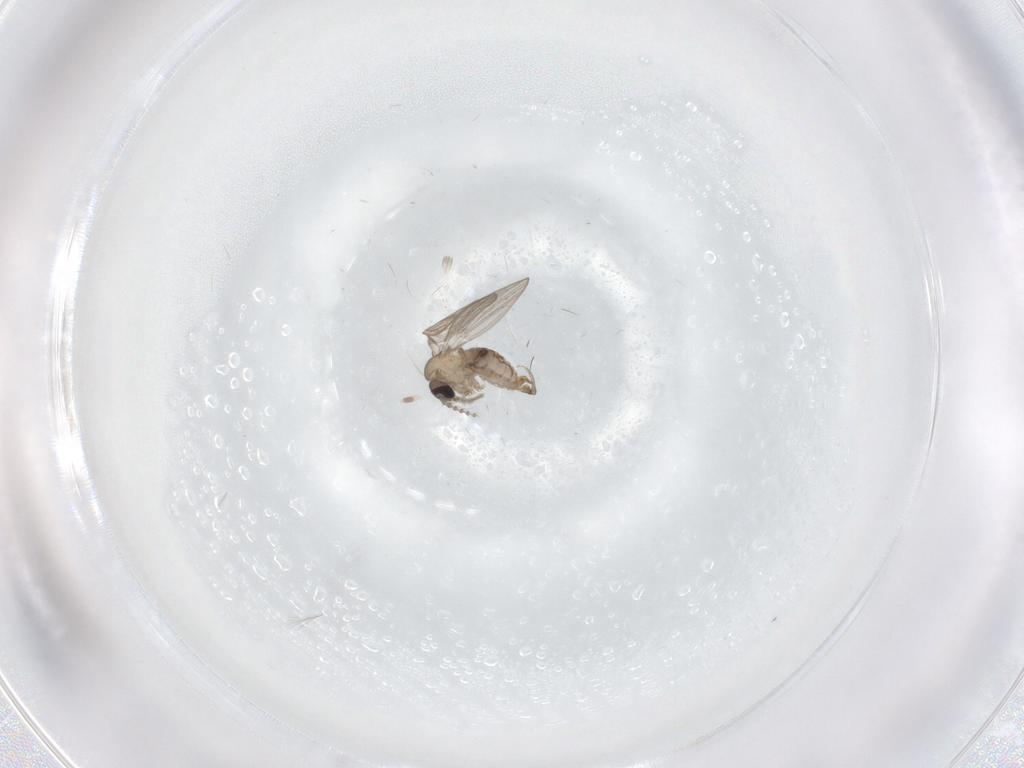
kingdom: Animalia
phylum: Arthropoda
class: Insecta
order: Diptera
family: Psychodidae
